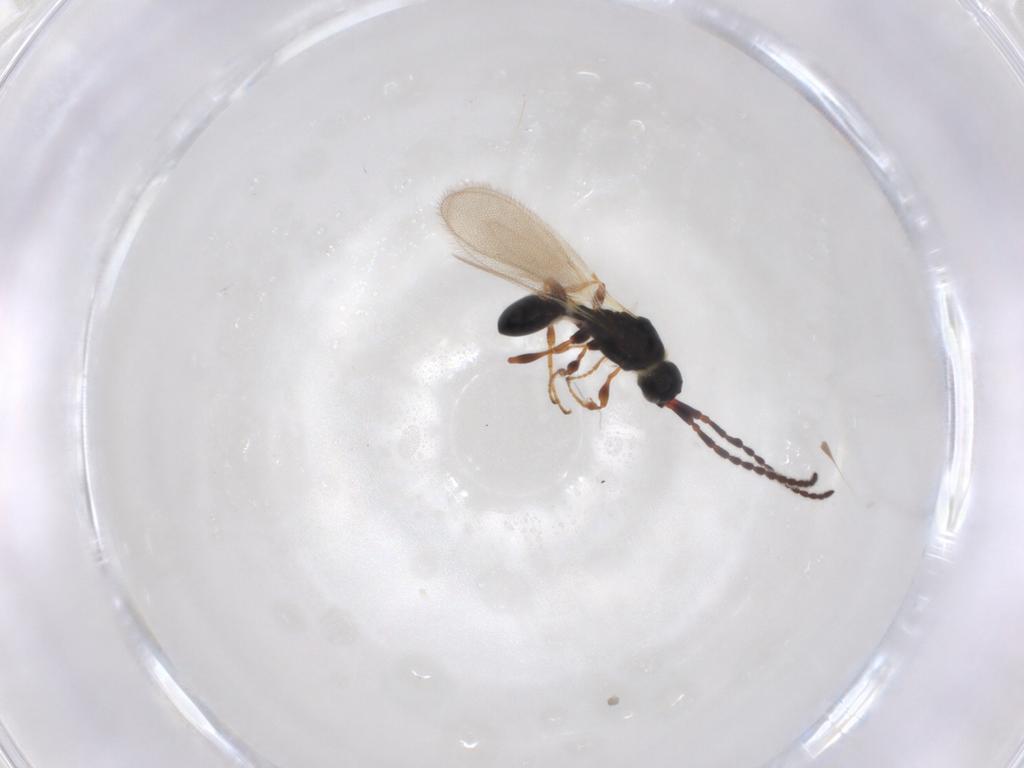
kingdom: Animalia
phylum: Arthropoda
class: Insecta
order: Hymenoptera
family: Diapriidae
